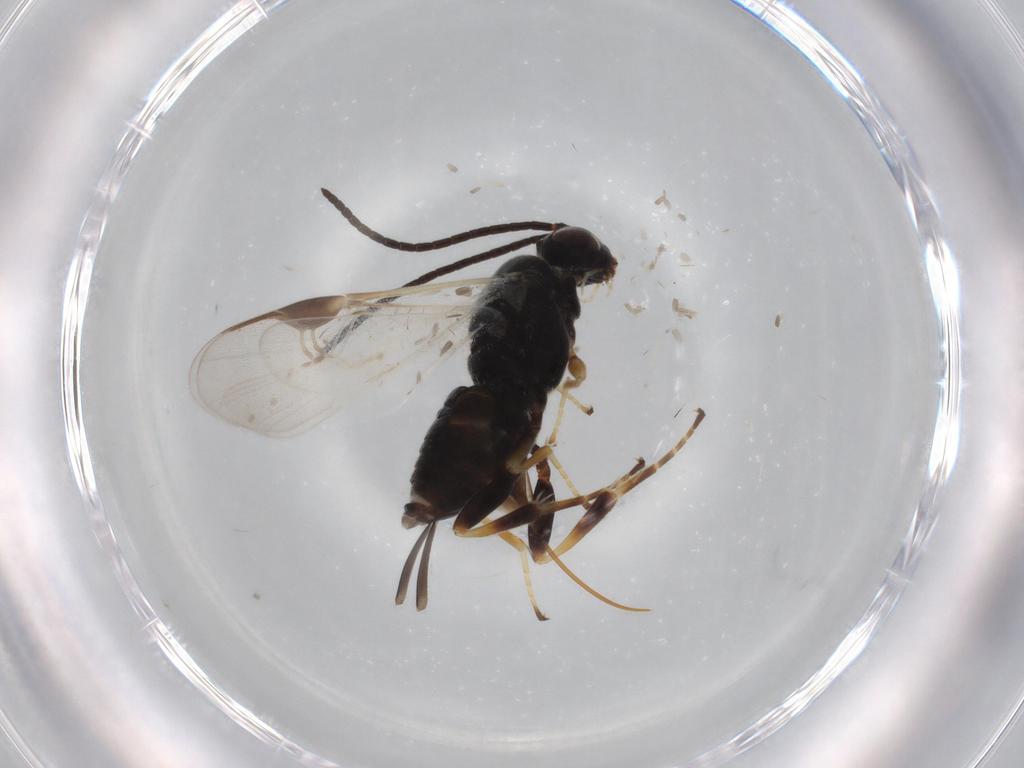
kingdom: Animalia
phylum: Arthropoda
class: Insecta
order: Hymenoptera
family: Braconidae
